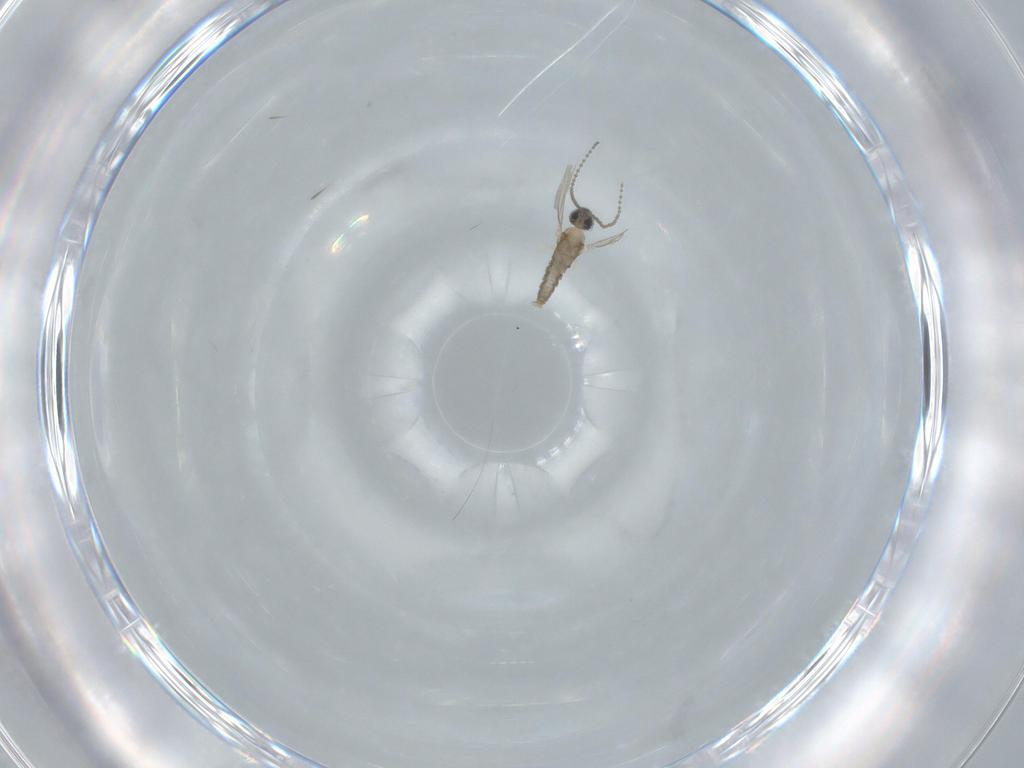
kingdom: Animalia
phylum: Arthropoda
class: Insecta
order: Diptera
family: Cecidomyiidae
